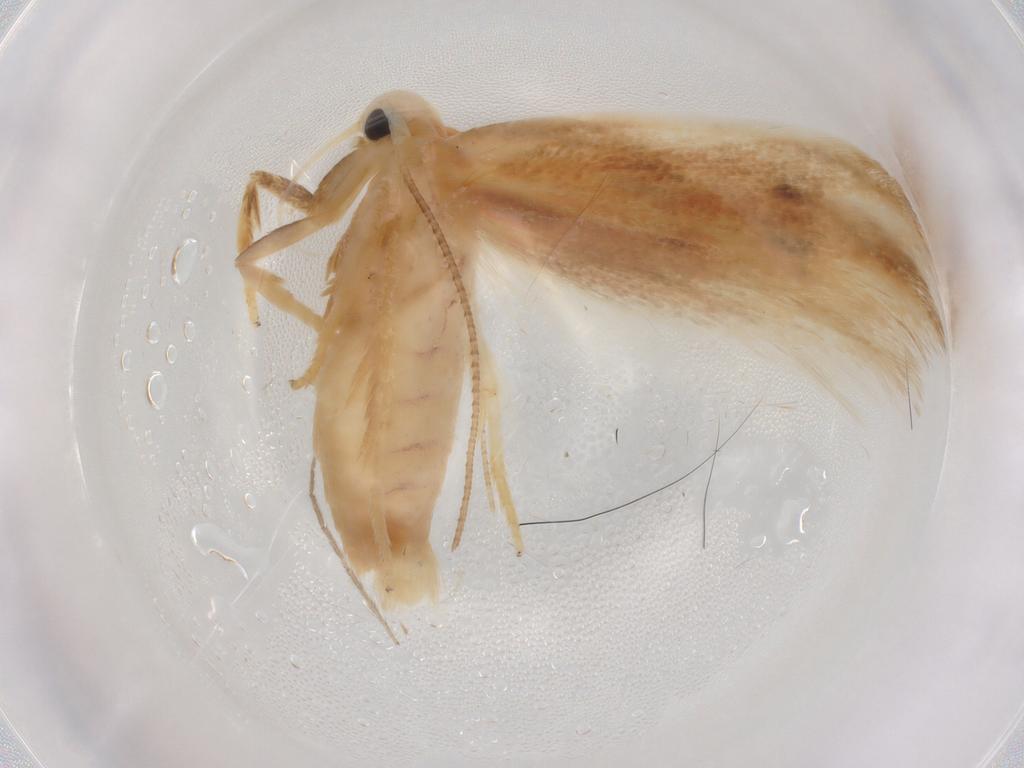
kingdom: Animalia
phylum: Arthropoda
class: Insecta
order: Lepidoptera
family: Geometridae
